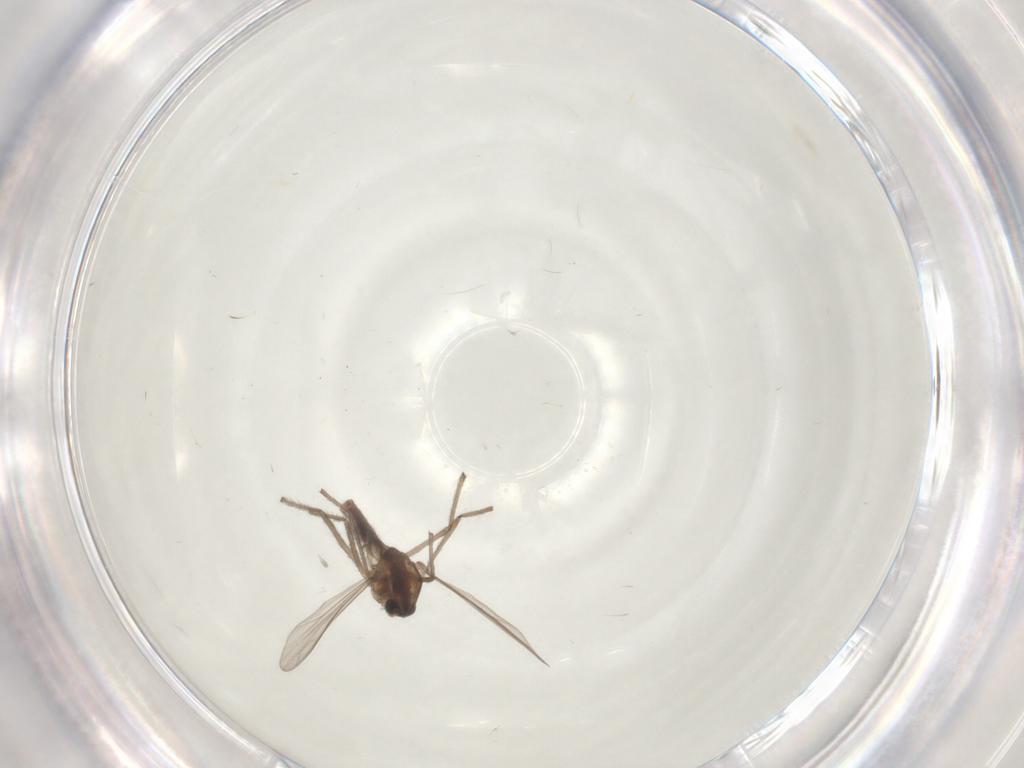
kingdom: Animalia
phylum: Arthropoda
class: Insecta
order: Diptera
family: Chironomidae
